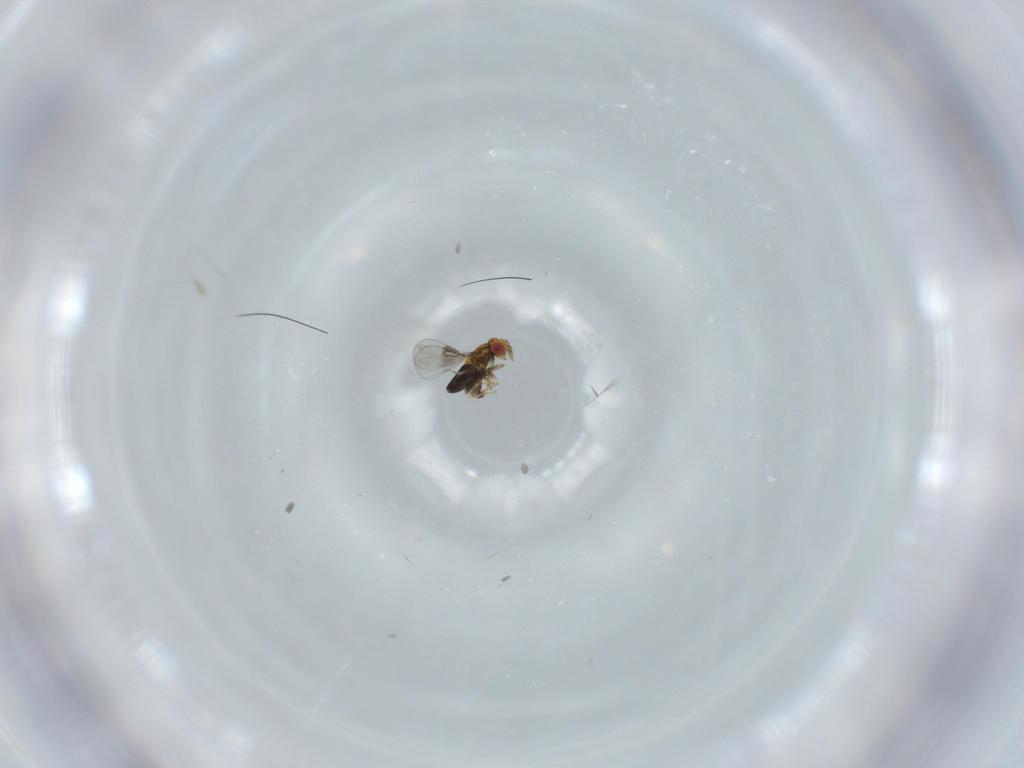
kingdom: Animalia
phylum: Arthropoda
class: Insecta
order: Hymenoptera
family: Trichogrammatidae
